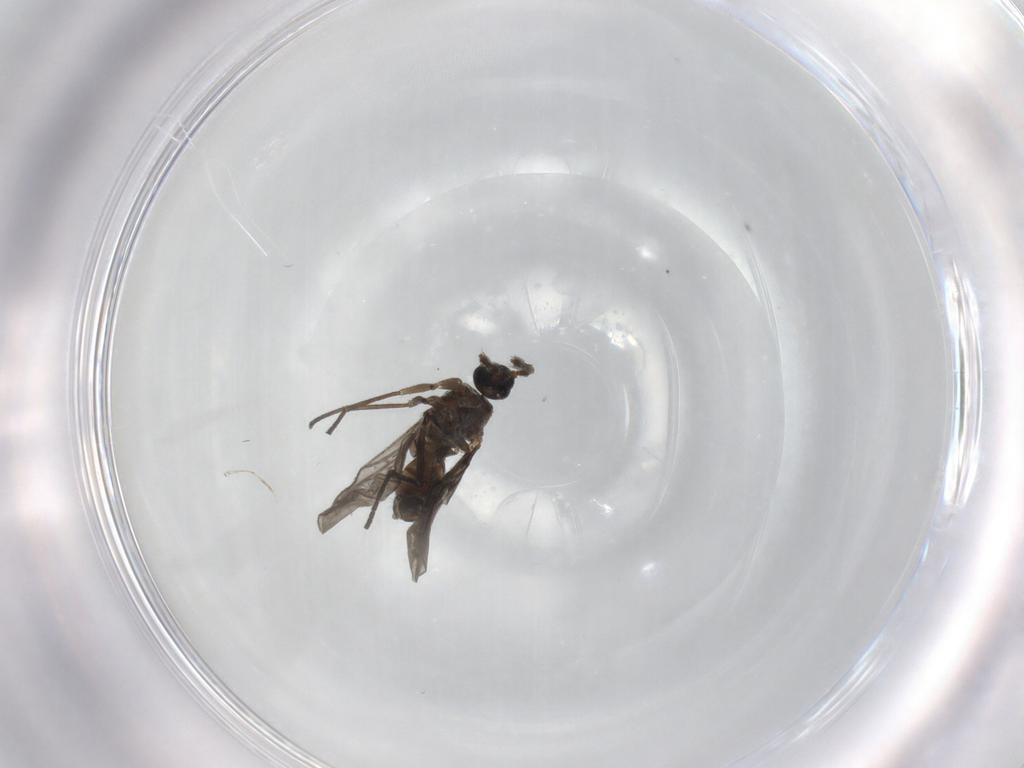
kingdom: Animalia
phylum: Arthropoda
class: Insecta
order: Diptera
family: Sciaridae
